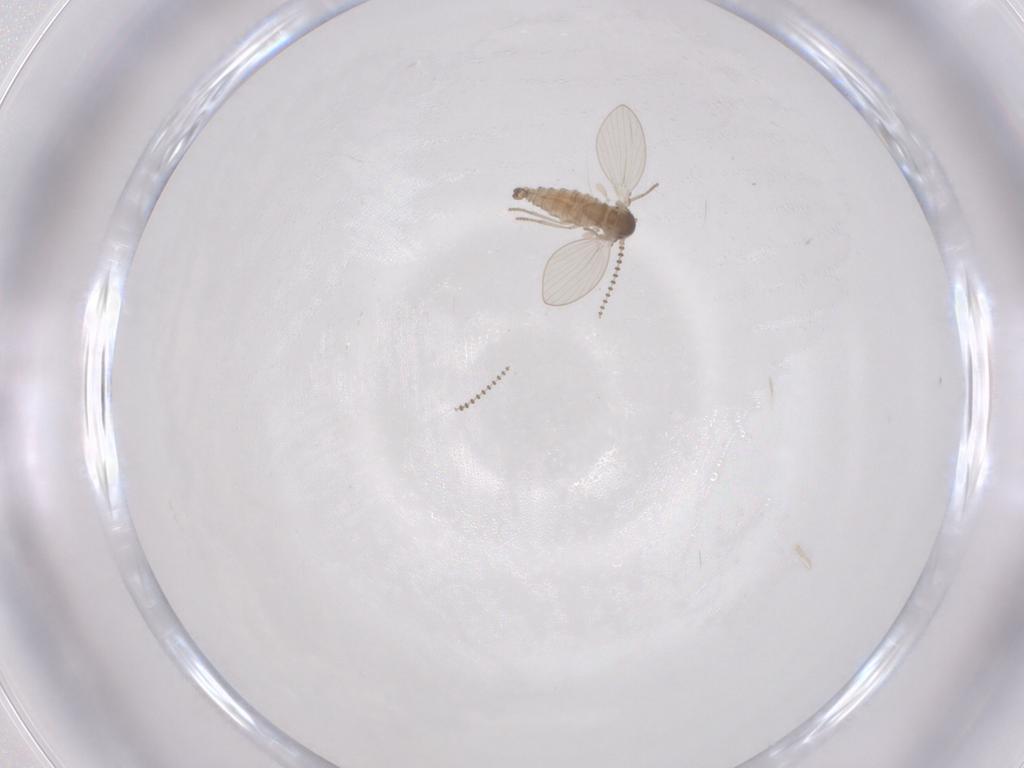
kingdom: Animalia
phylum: Arthropoda
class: Insecta
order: Diptera
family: Psychodidae
